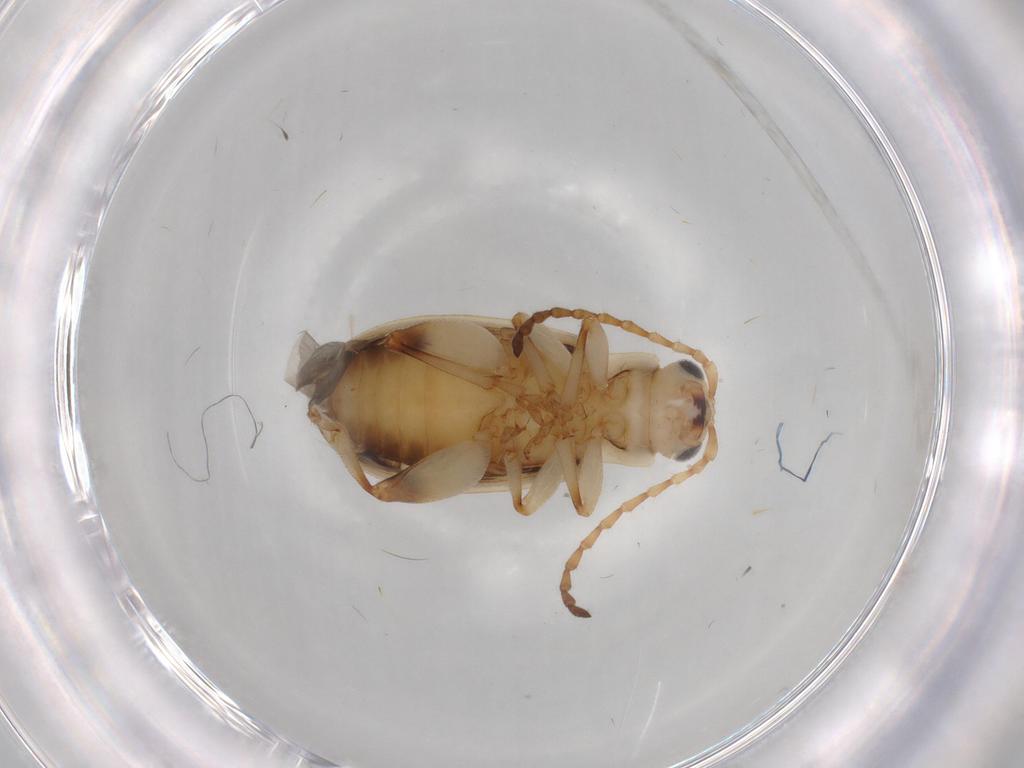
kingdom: Animalia
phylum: Arthropoda
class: Insecta
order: Coleoptera
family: Chrysomelidae
